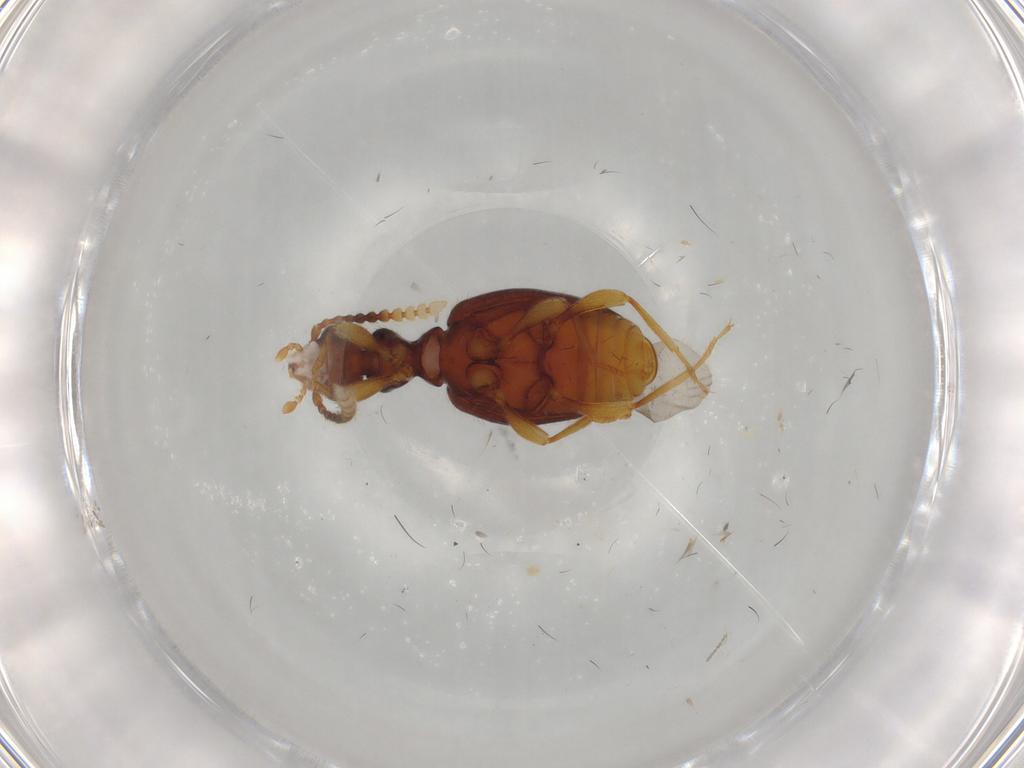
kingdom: Animalia
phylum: Arthropoda
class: Insecta
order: Coleoptera
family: Anthicidae
